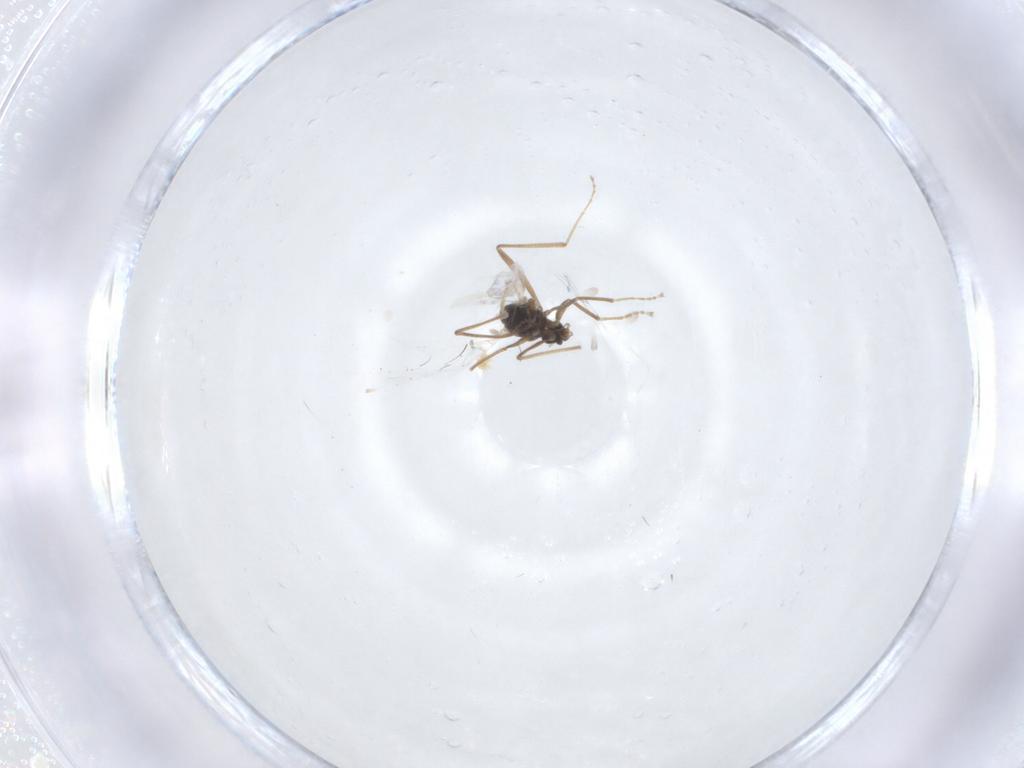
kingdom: Animalia
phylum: Arthropoda
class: Insecta
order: Diptera
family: Cecidomyiidae
